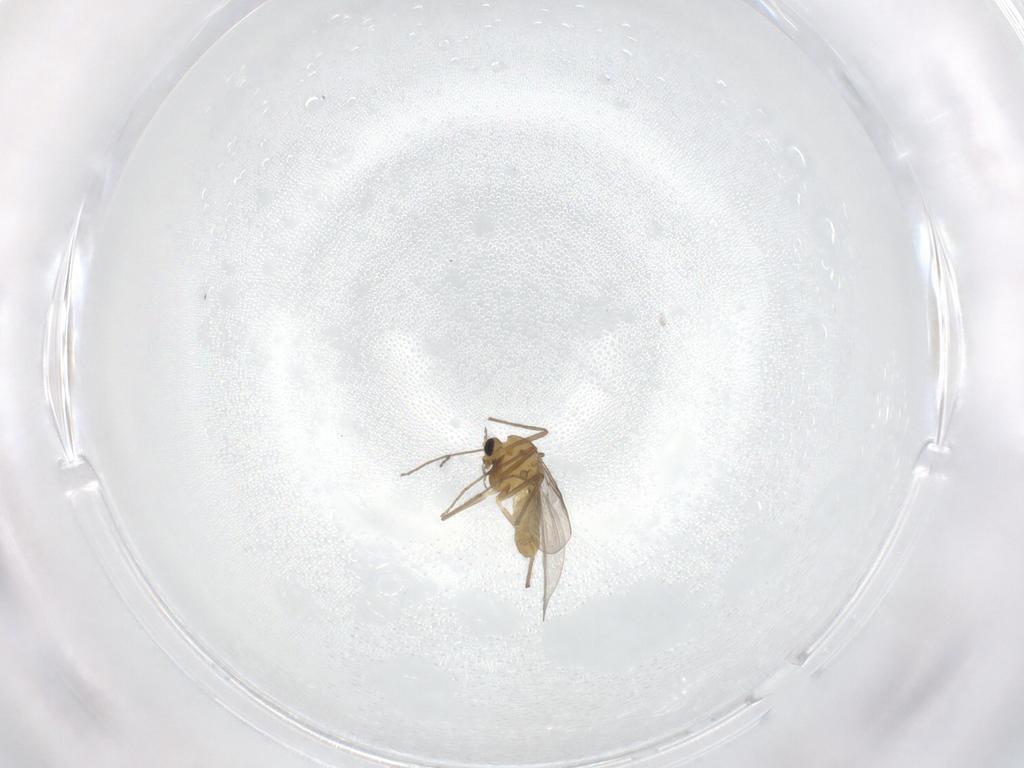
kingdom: Animalia
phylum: Arthropoda
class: Insecta
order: Diptera
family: Chironomidae
